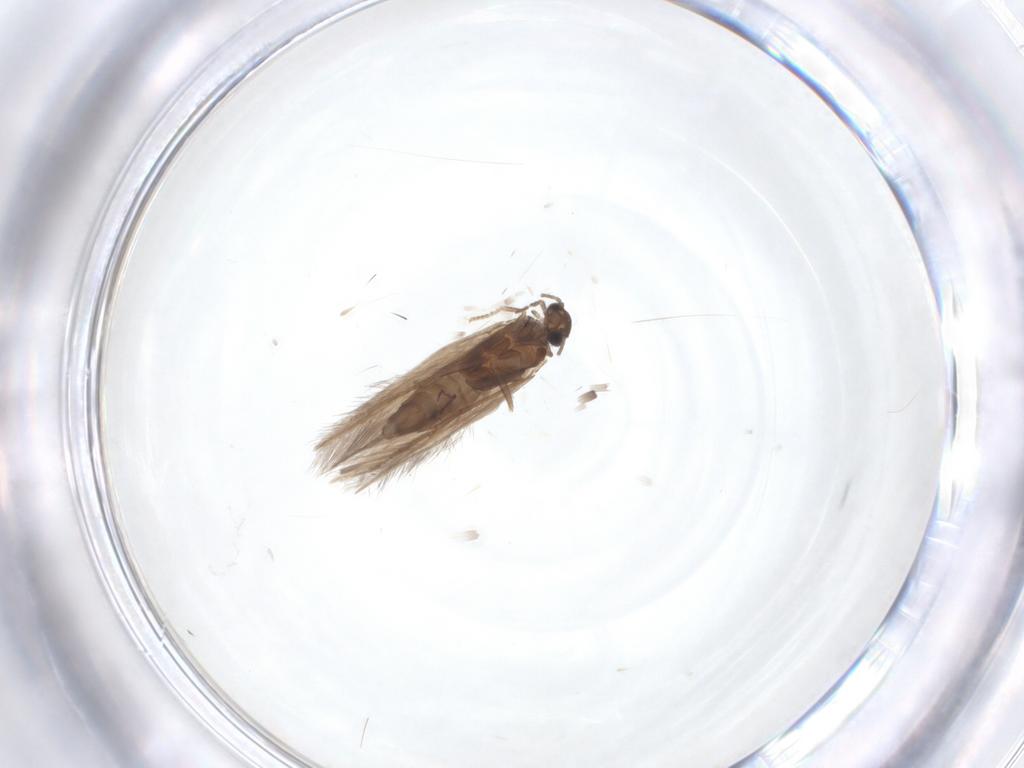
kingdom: Animalia
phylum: Arthropoda
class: Insecta
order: Trichoptera
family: Hydroptilidae
